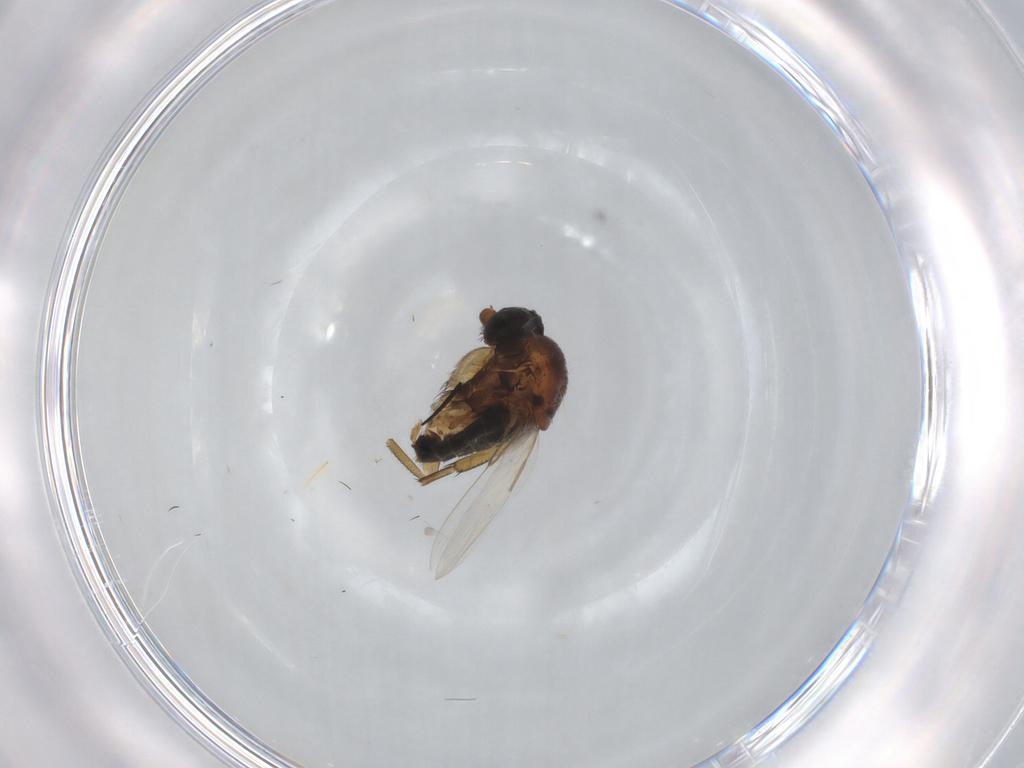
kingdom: Animalia
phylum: Arthropoda
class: Insecta
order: Diptera
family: Phoridae
